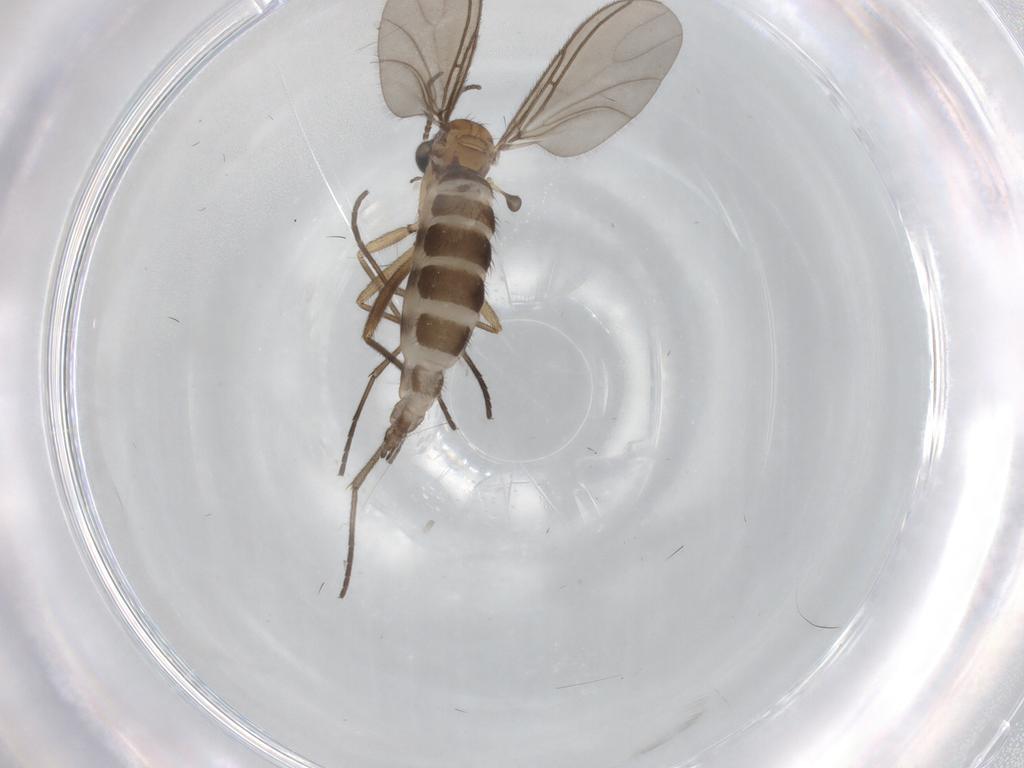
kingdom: Animalia
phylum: Arthropoda
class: Insecta
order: Diptera
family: Sciaridae
